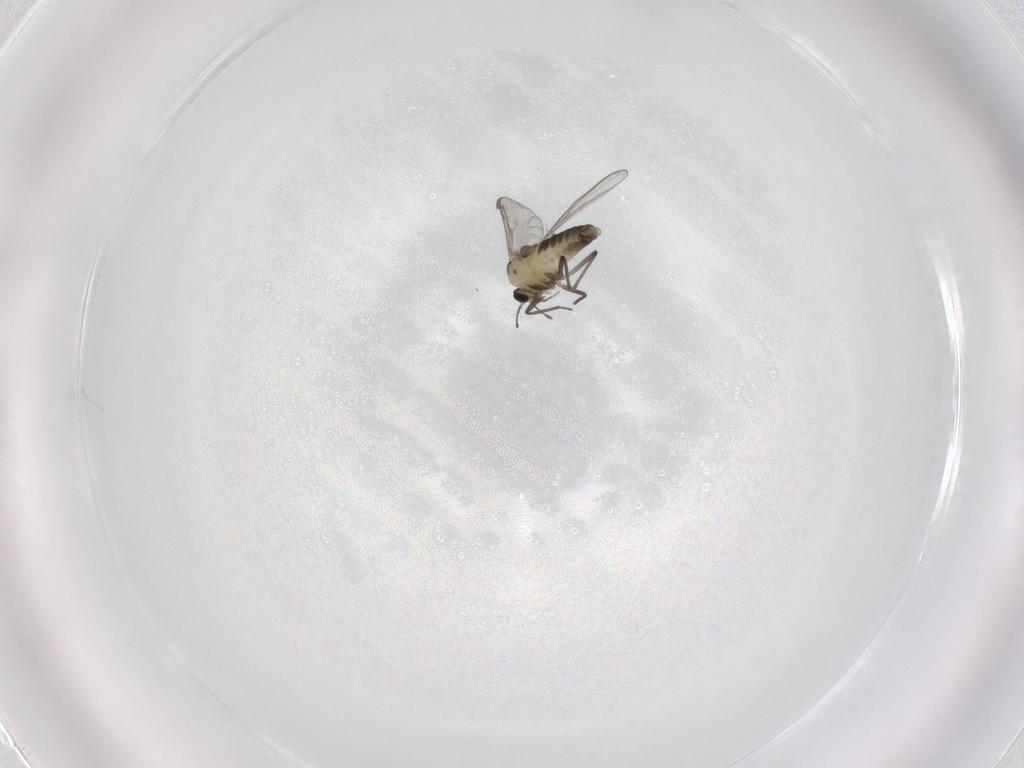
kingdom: Animalia
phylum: Arthropoda
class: Insecta
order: Diptera
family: Chironomidae
